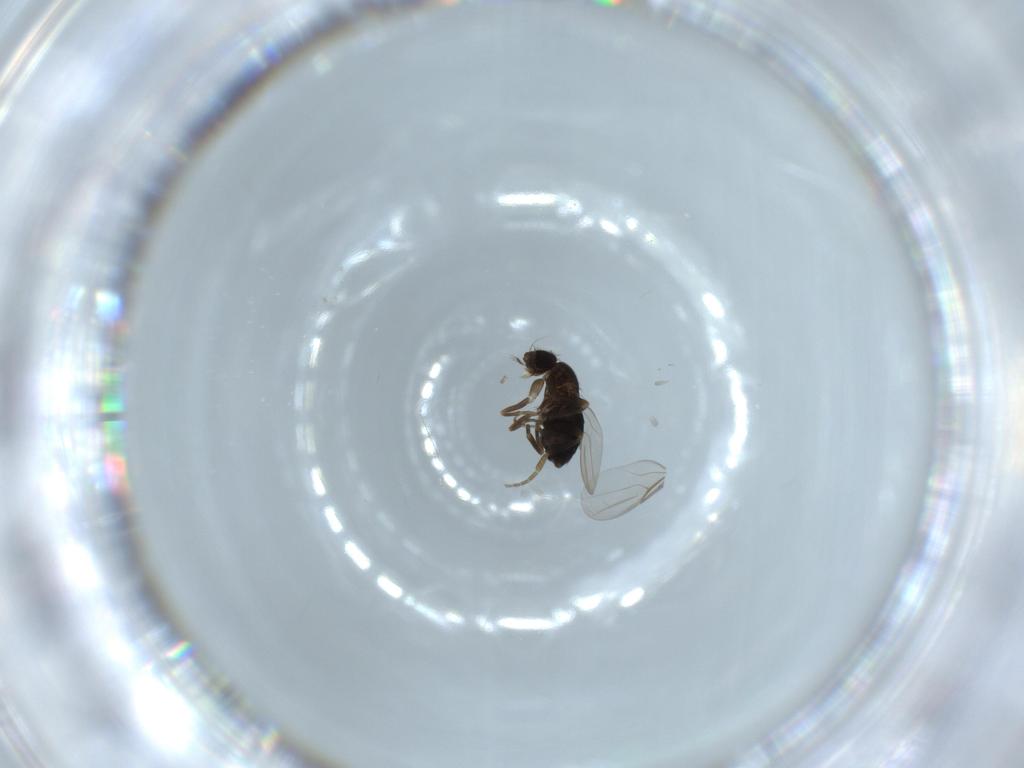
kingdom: Animalia
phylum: Arthropoda
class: Insecta
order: Diptera
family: Phoridae
